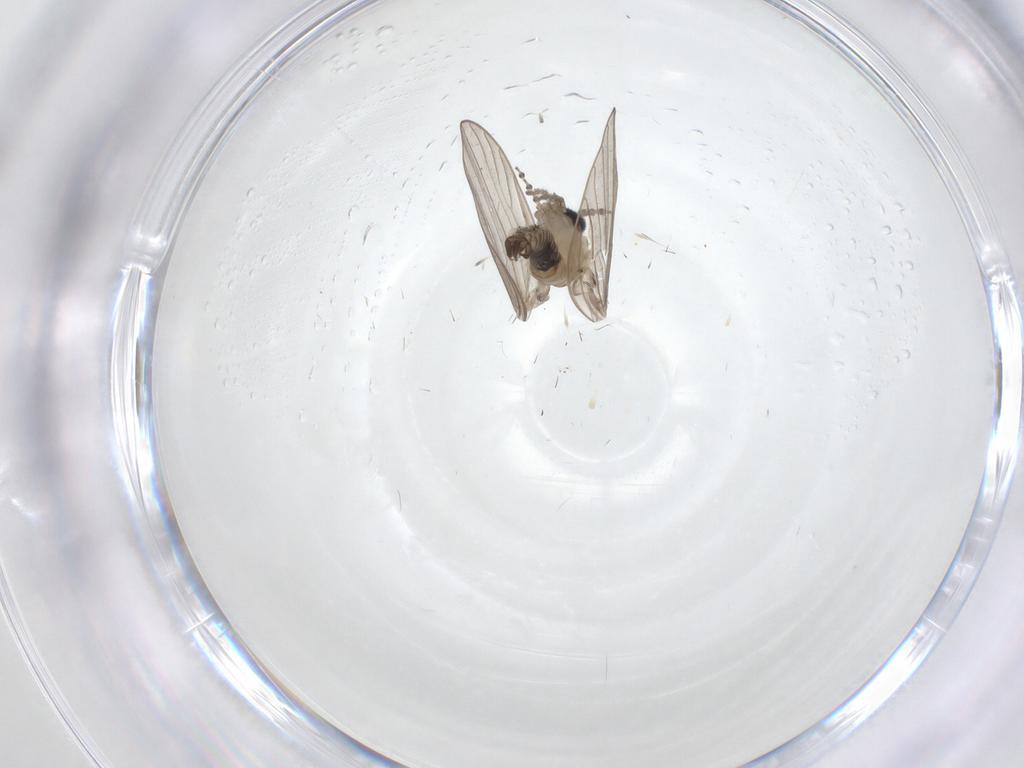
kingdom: Animalia
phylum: Arthropoda
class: Insecta
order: Diptera
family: Psychodidae
